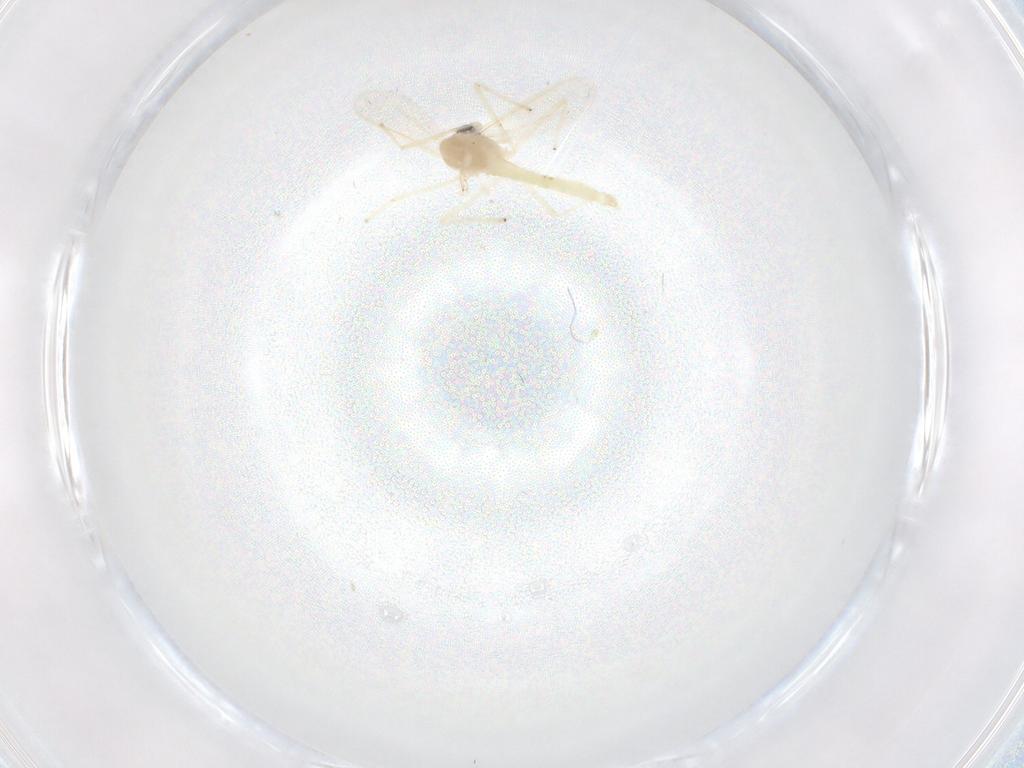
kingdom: Animalia
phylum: Arthropoda
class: Insecta
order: Diptera
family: Chironomidae
